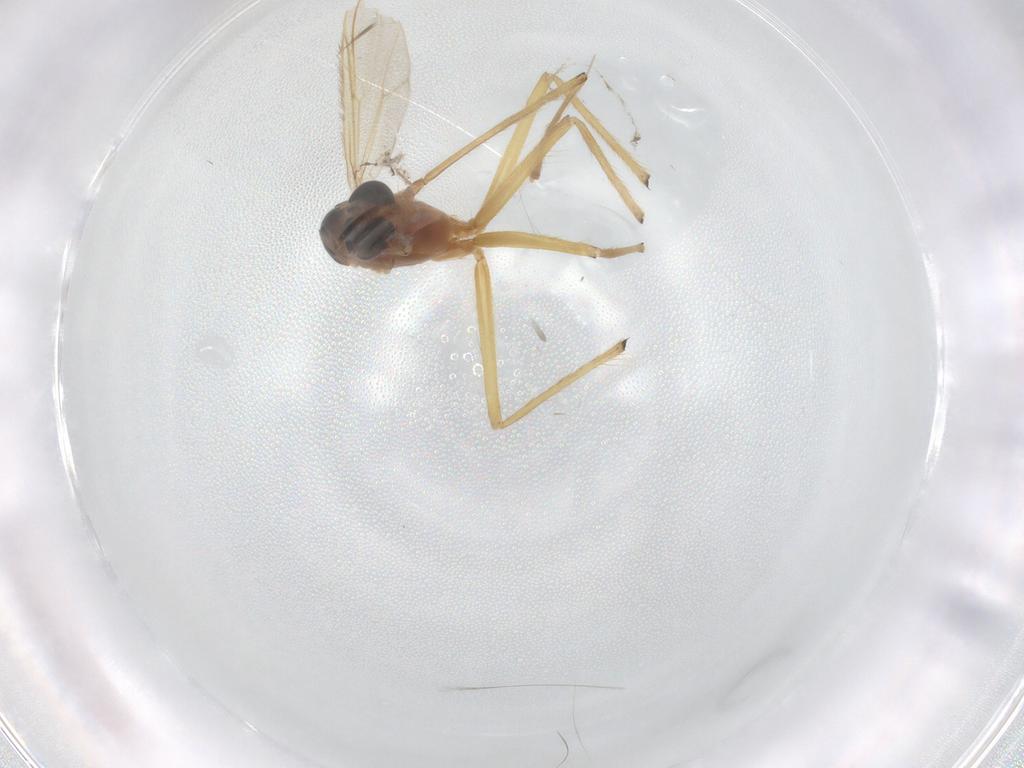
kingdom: Animalia
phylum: Arthropoda
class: Insecta
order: Diptera
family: Chironomidae
